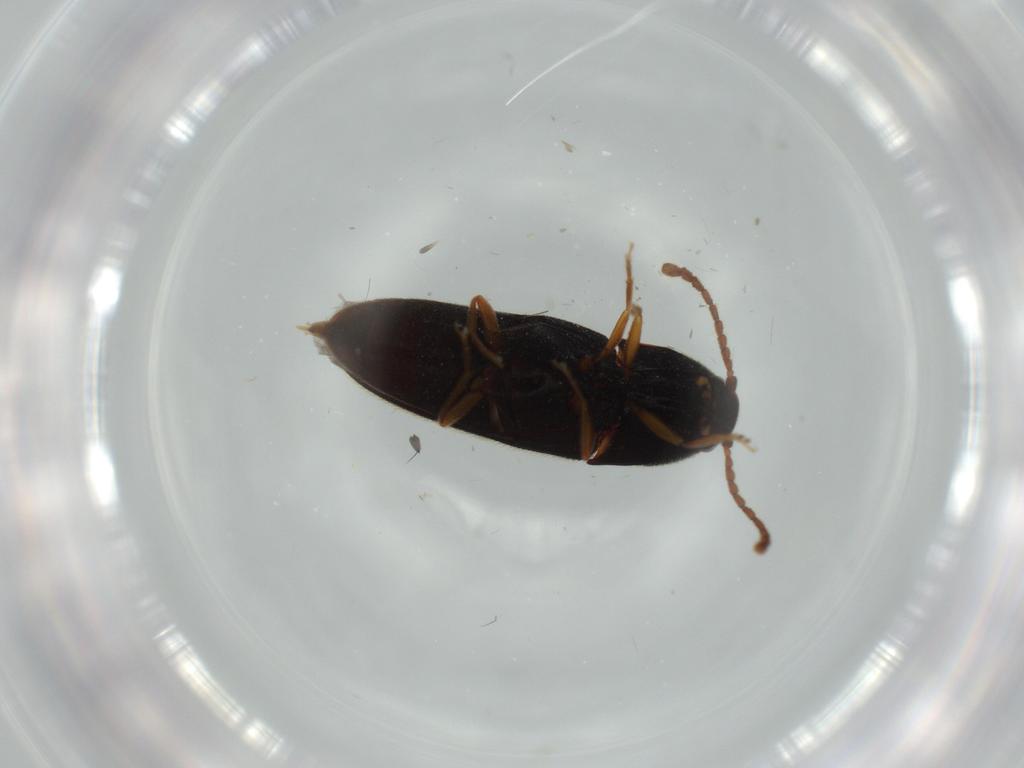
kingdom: Animalia
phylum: Arthropoda
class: Insecta
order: Coleoptera
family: Elateridae
